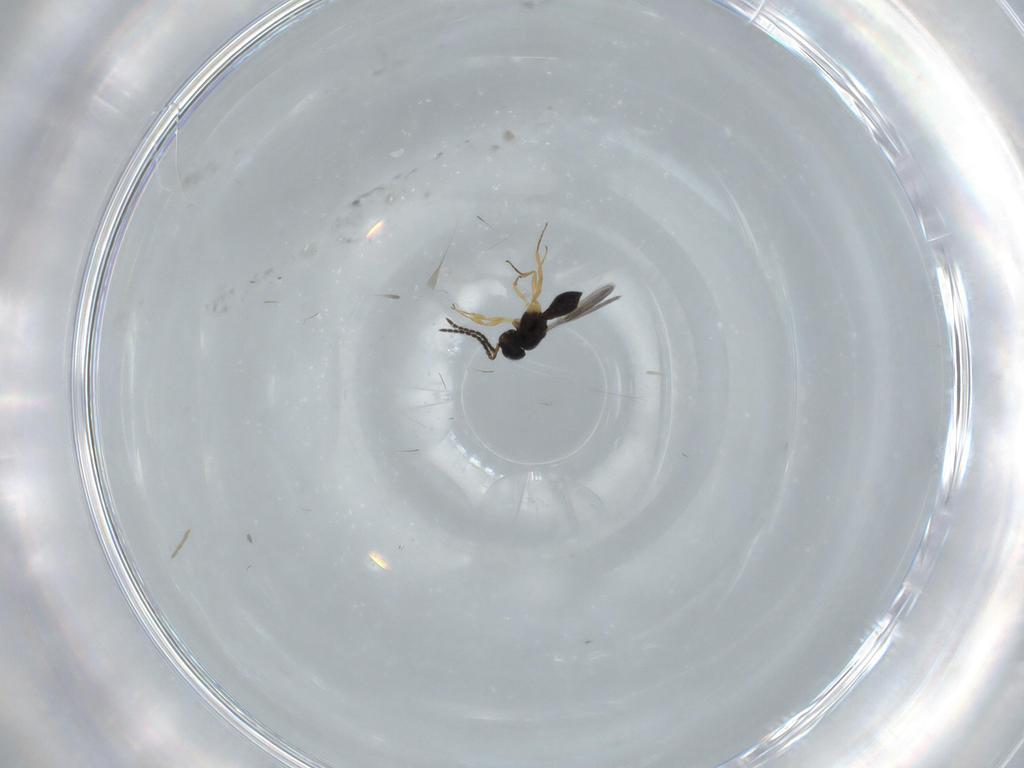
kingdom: Animalia
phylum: Arthropoda
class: Insecta
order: Hymenoptera
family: Scelionidae
